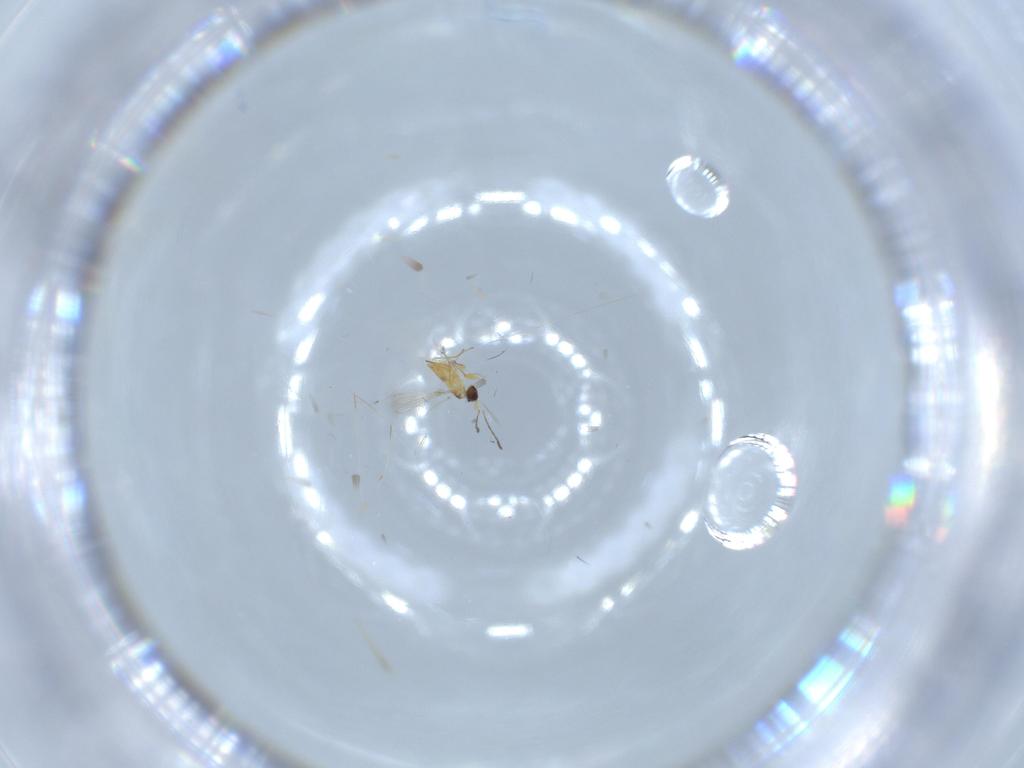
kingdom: Animalia
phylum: Arthropoda
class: Insecta
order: Hymenoptera
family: Mymaridae
